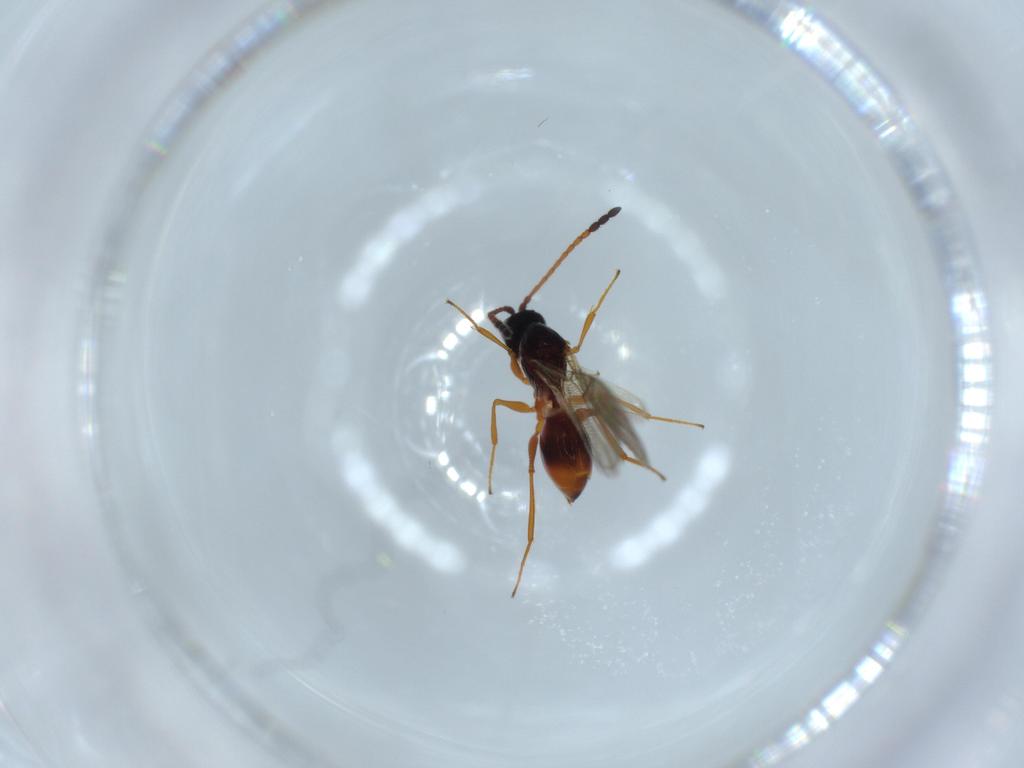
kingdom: Animalia
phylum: Arthropoda
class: Insecta
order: Hymenoptera
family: Figitidae
